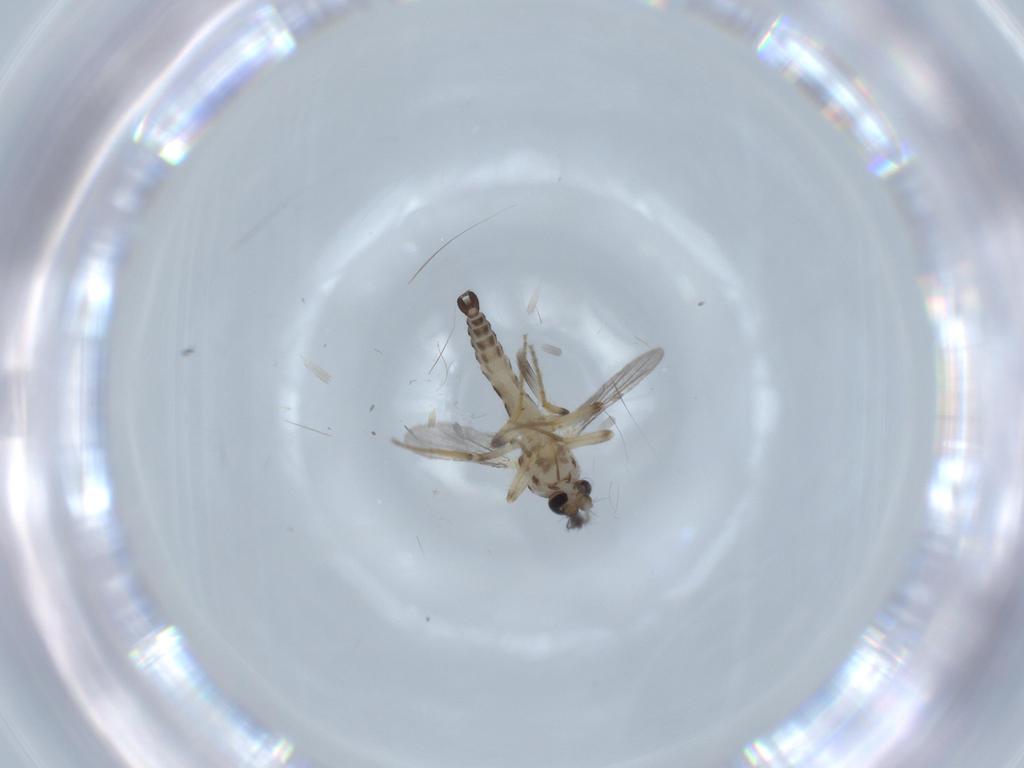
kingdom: Animalia
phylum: Arthropoda
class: Insecta
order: Diptera
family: Ceratopogonidae
